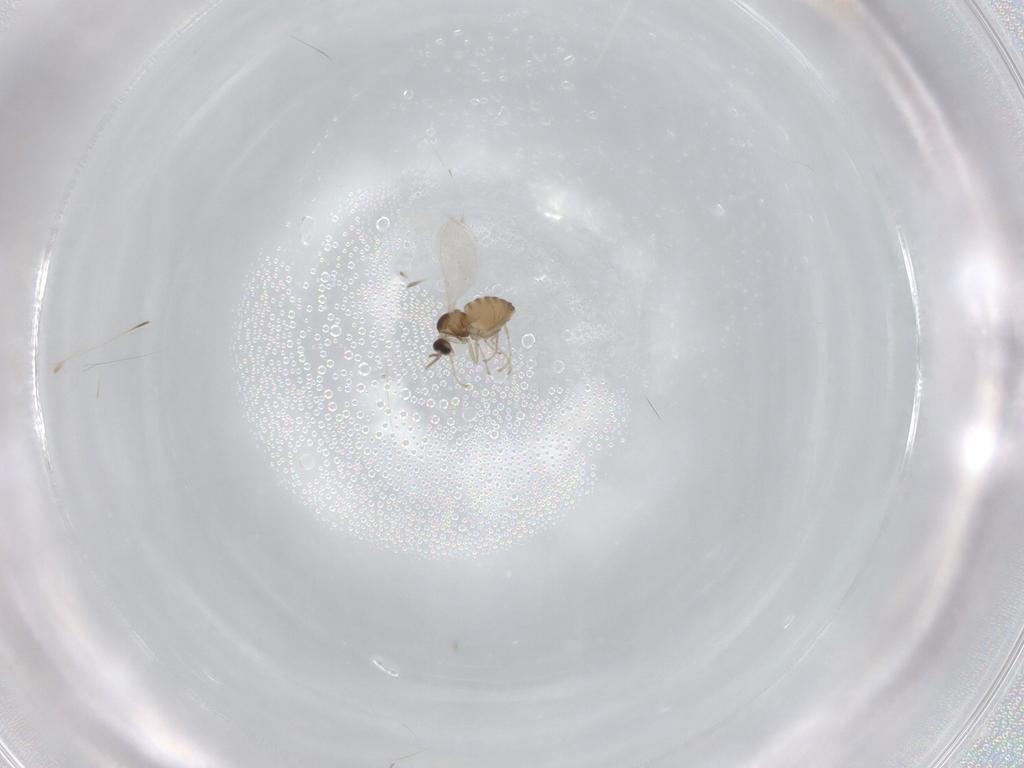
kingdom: Animalia
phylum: Arthropoda
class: Insecta
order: Diptera
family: Cecidomyiidae
